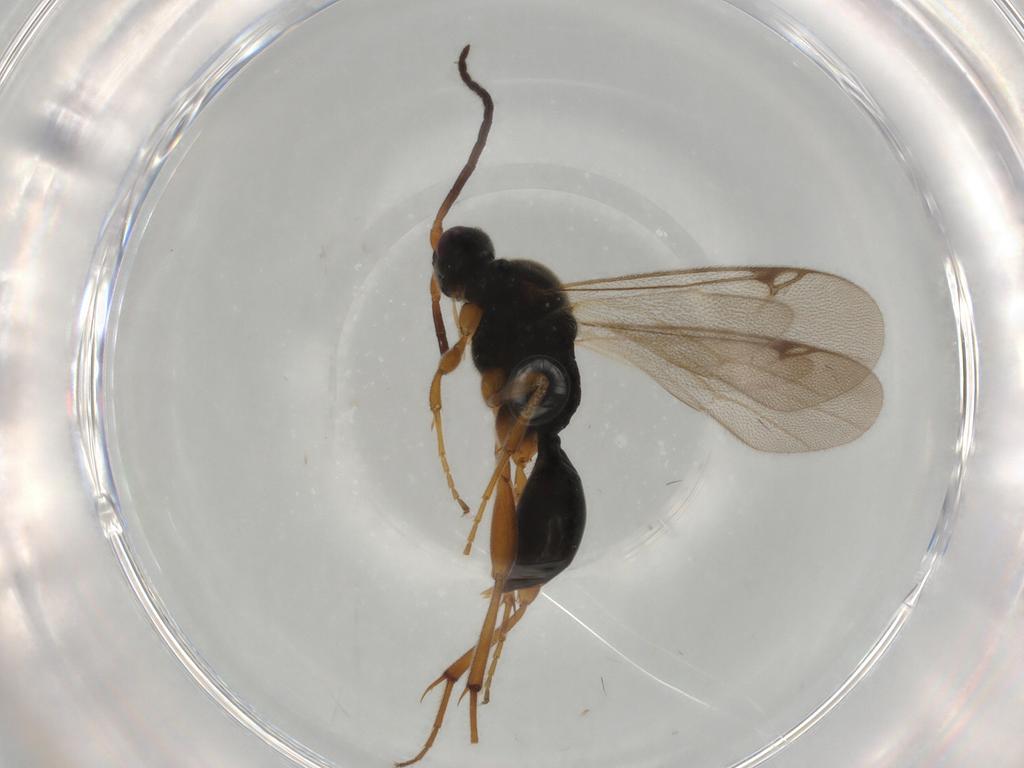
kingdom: Animalia
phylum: Arthropoda
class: Insecta
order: Hymenoptera
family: Proctotrupidae
